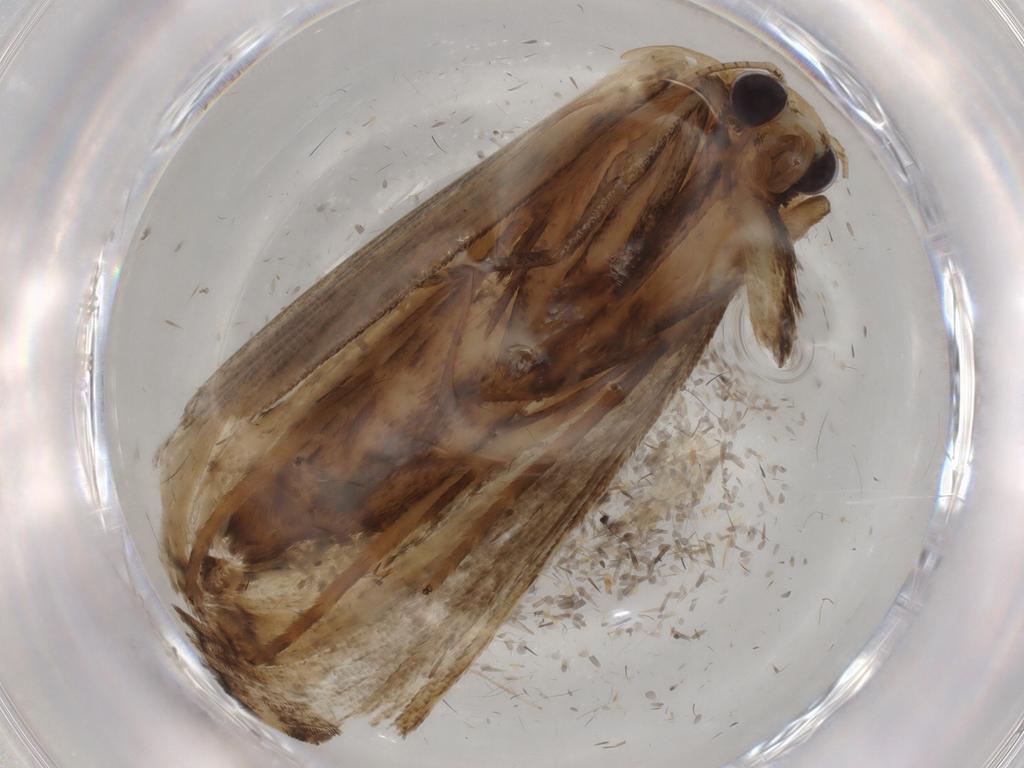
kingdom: Animalia
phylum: Arthropoda
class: Insecta
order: Lepidoptera
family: Noctuidae
